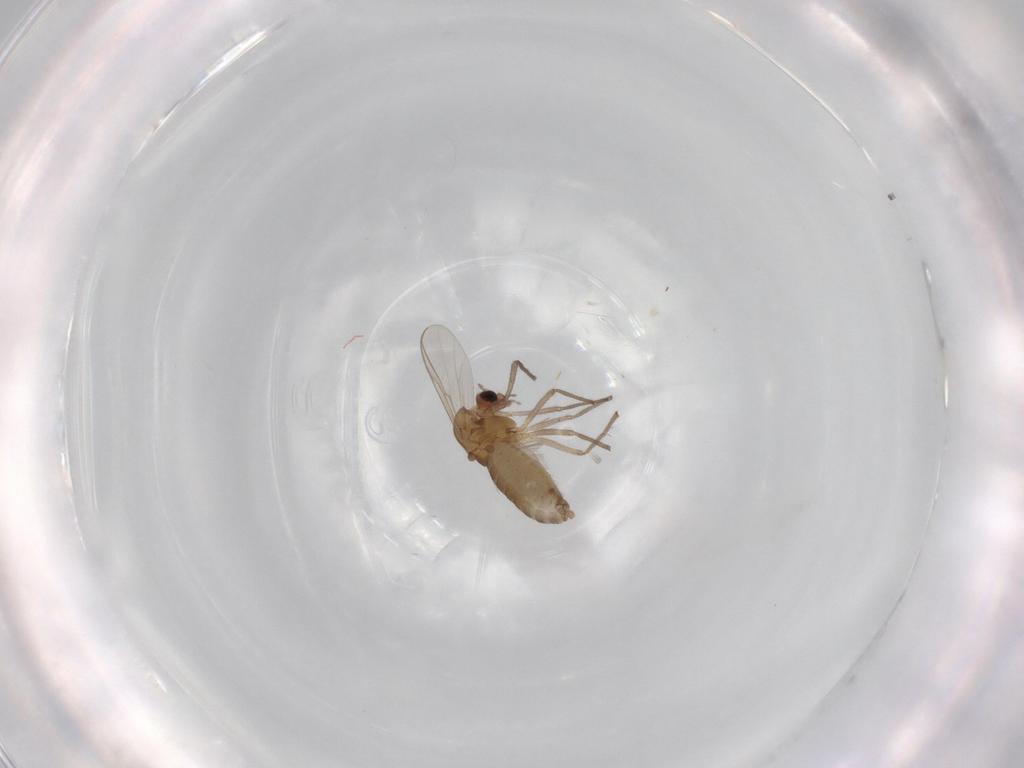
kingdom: Animalia
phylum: Arthropoda
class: Insecta
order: Diptera
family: Chironomidae
